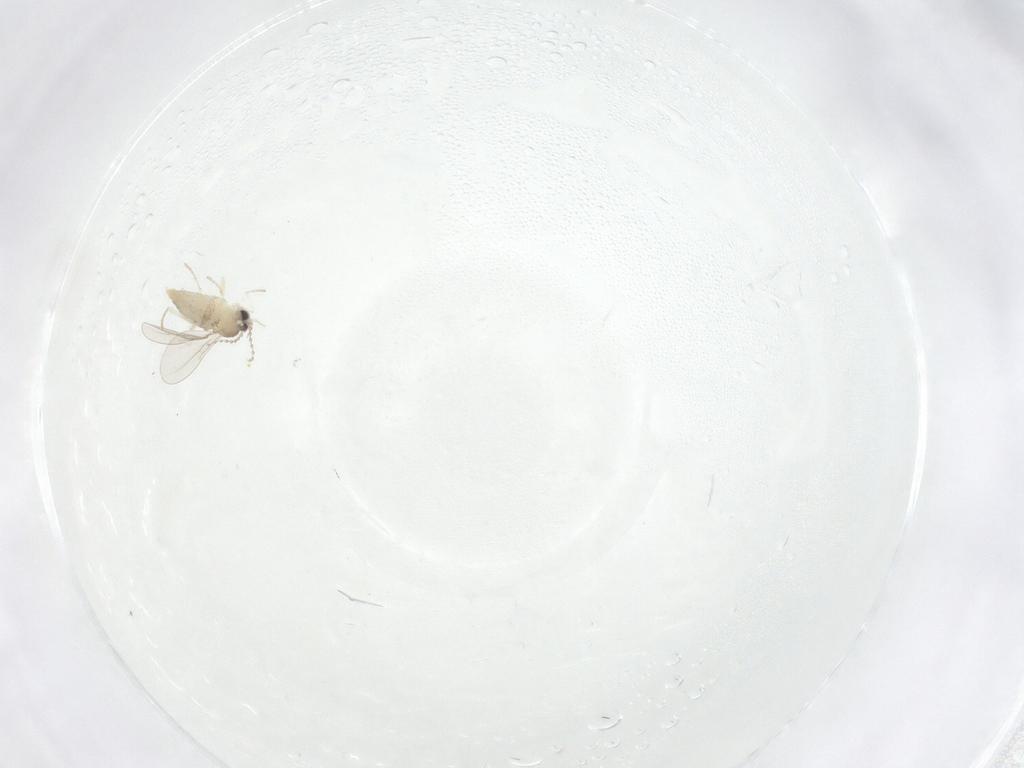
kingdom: Animalia
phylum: Arthropoda
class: Insecta
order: Diptera
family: Cecidomyiidae
